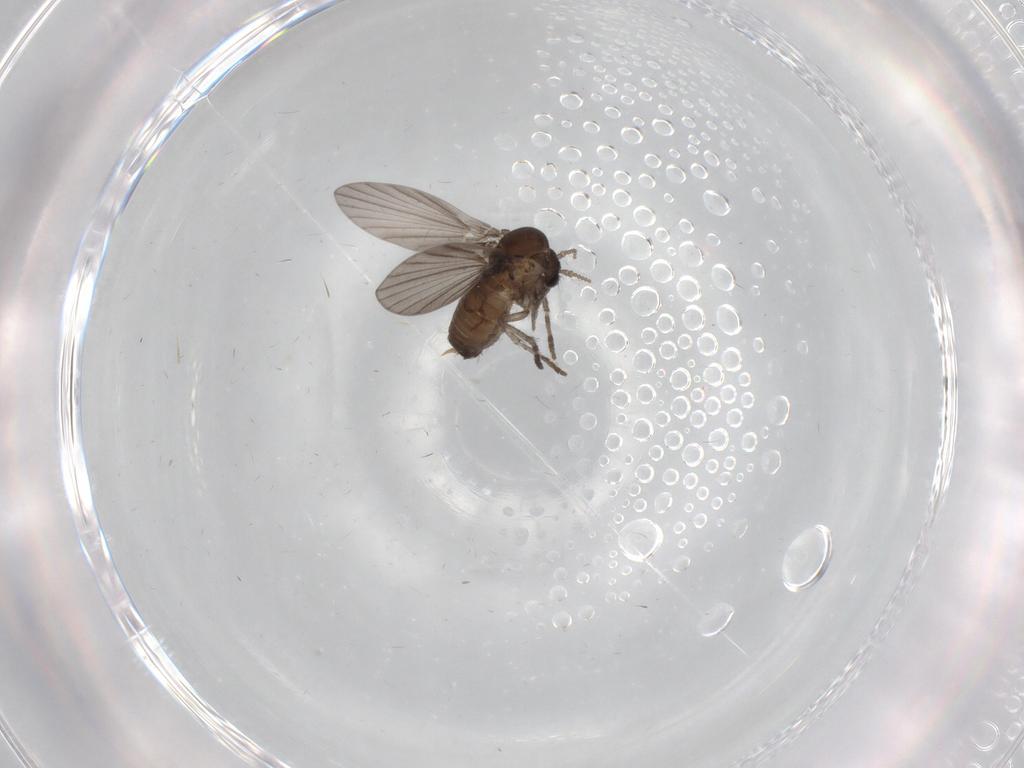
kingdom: Animalia
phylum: Arthropoda
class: Insecta
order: Diptera
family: Psychodidae
